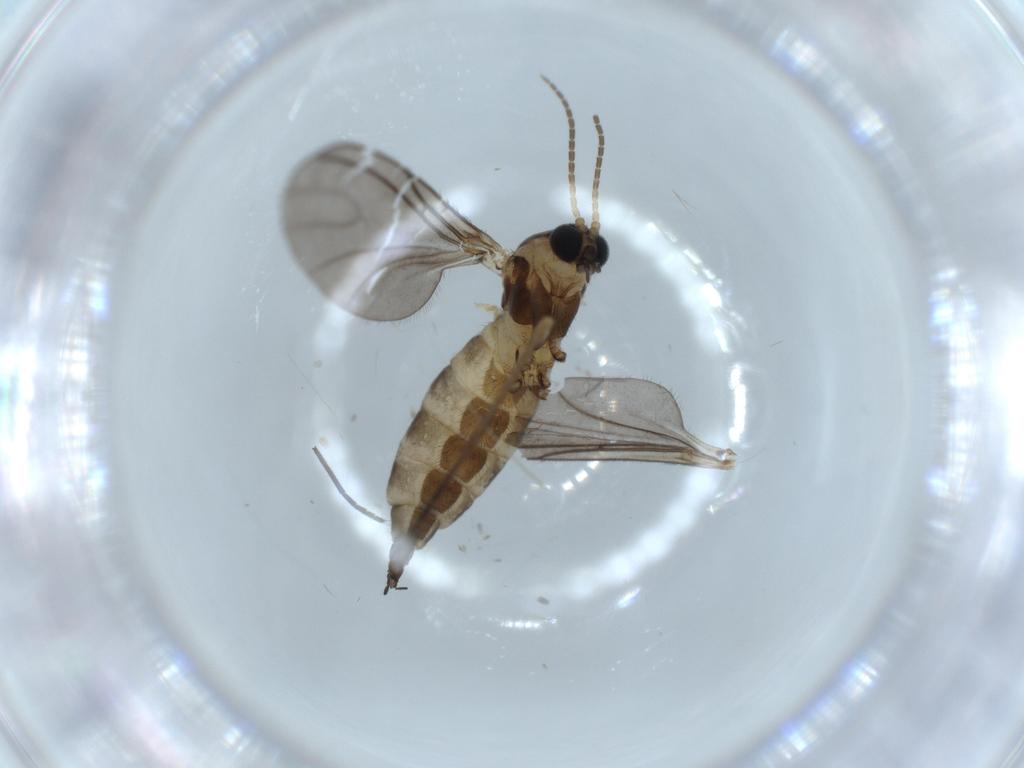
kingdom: Animalia
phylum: Arthropoda
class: Insecta
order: Diptera
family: Sciaridae
